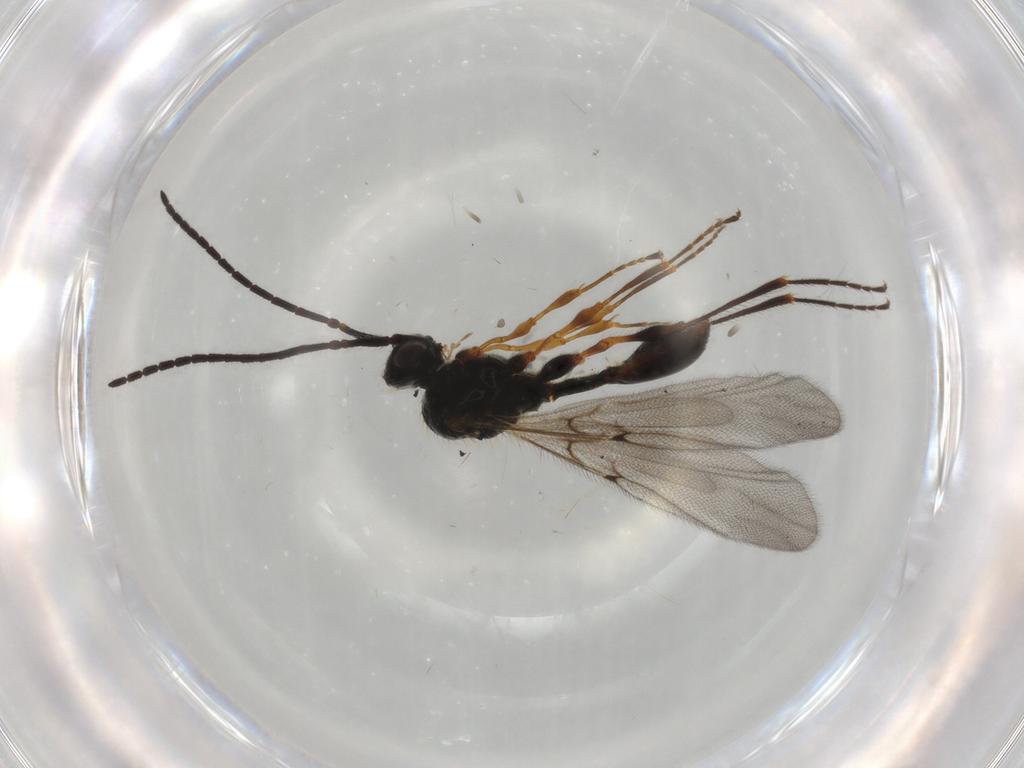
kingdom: Animalia
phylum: Arthropoda
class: Insecta
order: Hymenoptera
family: Diapriidae
